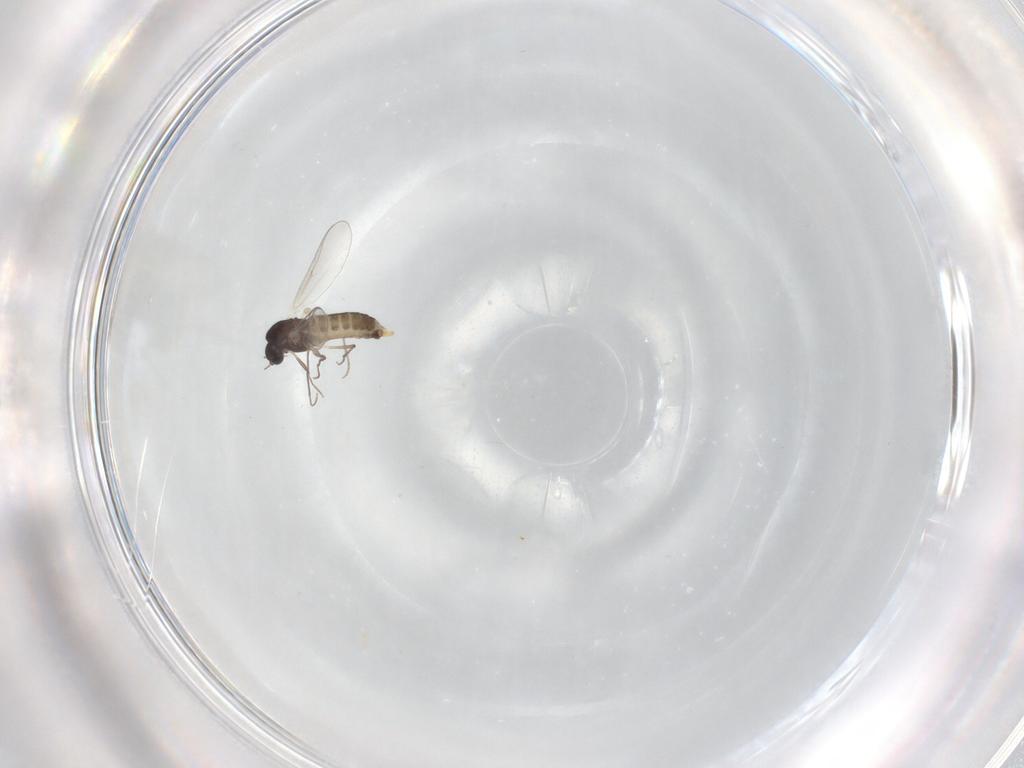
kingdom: Animalia
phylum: Arthropoda
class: Insecta
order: Diptera
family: Chironomidae
